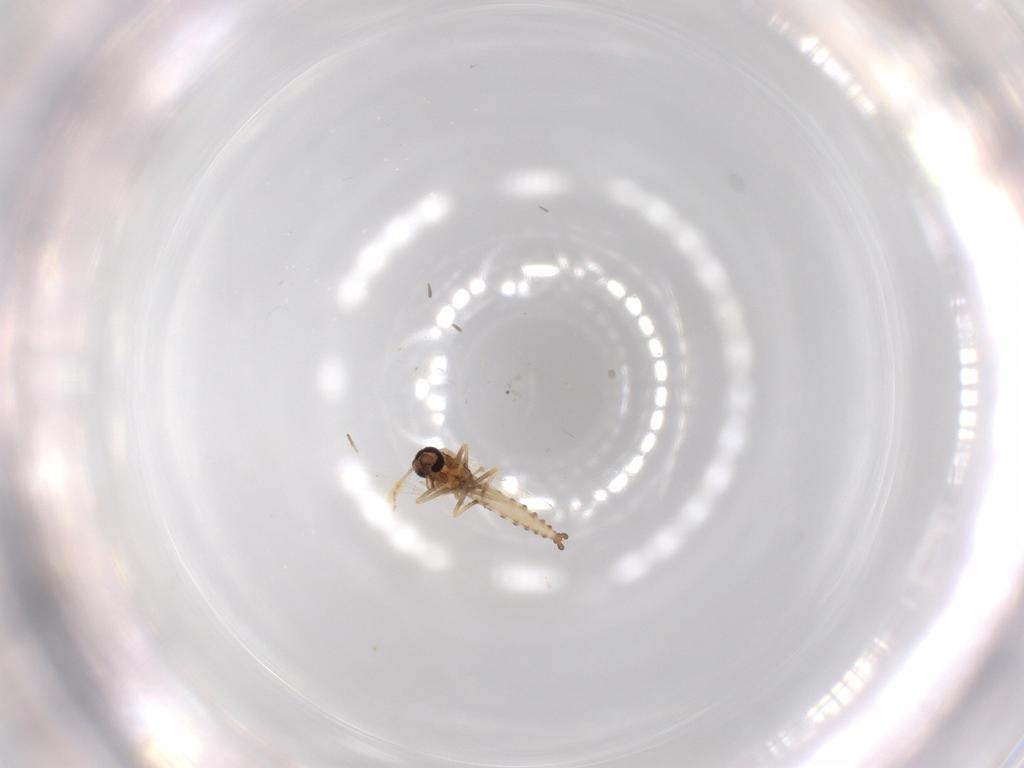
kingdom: Animalia
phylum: Arthropoda
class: Insecta
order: Diptera
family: Ceratopogonidae
